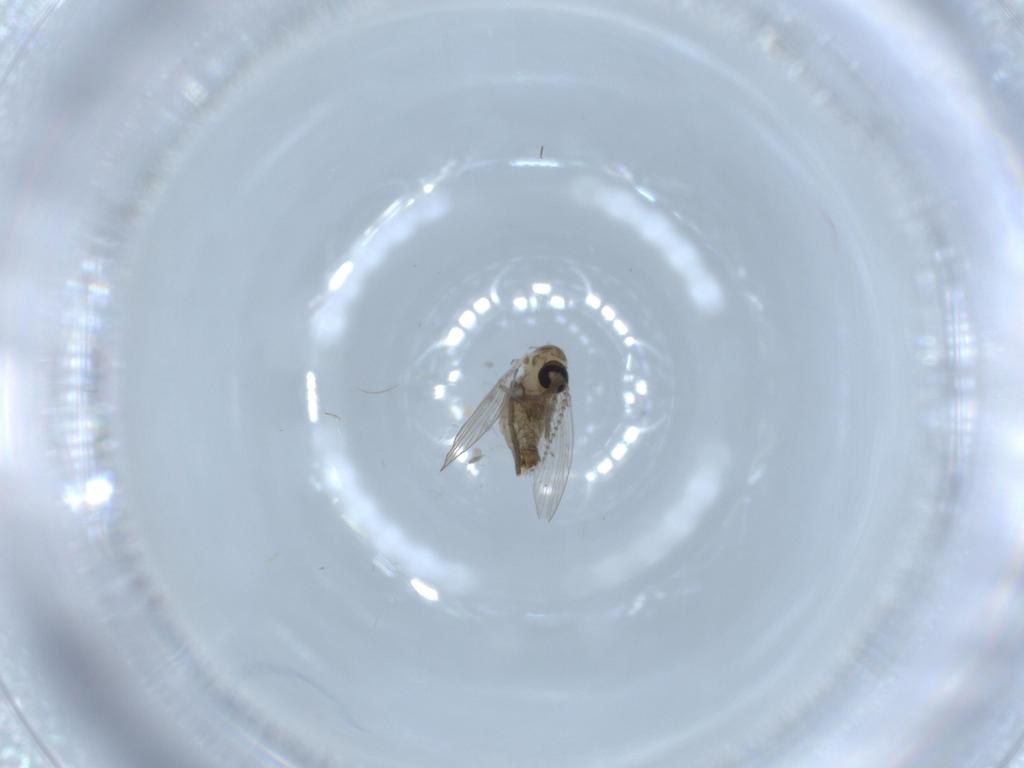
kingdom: Animalia
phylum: Arthropoda
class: Insecta
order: Diptera
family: Psychodidae
